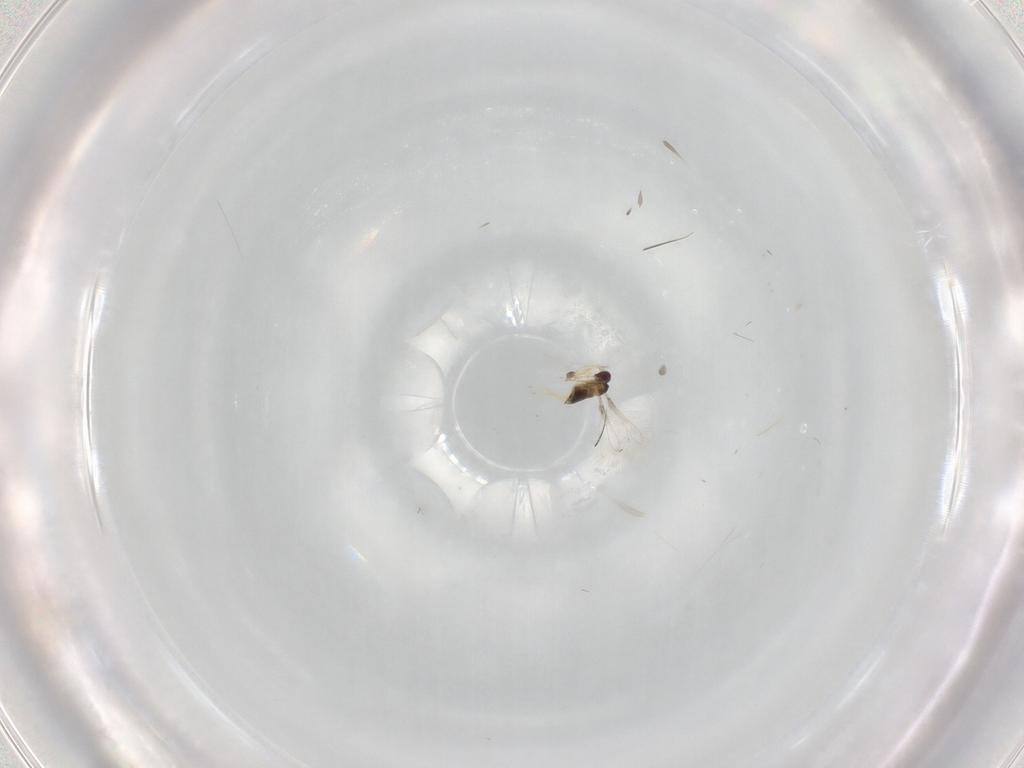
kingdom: Animalia
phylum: Arthropoda
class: Insecta
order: Hymenoptera
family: Mymaridae
